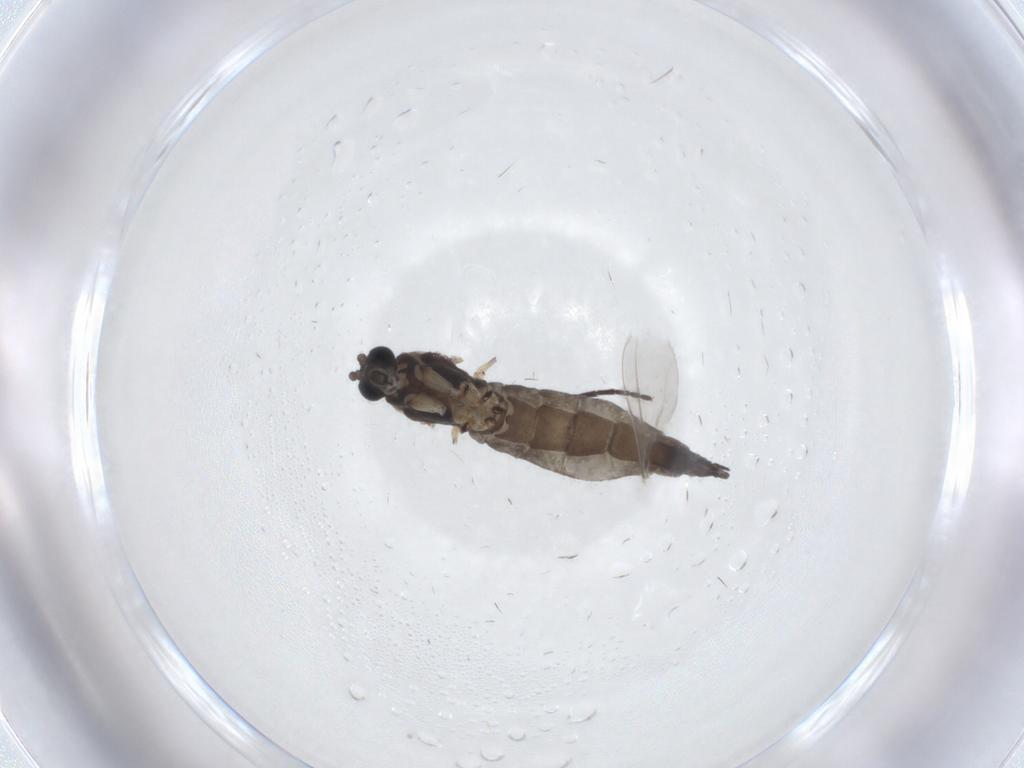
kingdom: Animalia
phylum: Arthropoda
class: Insecta
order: Diptera
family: Sciaridae
